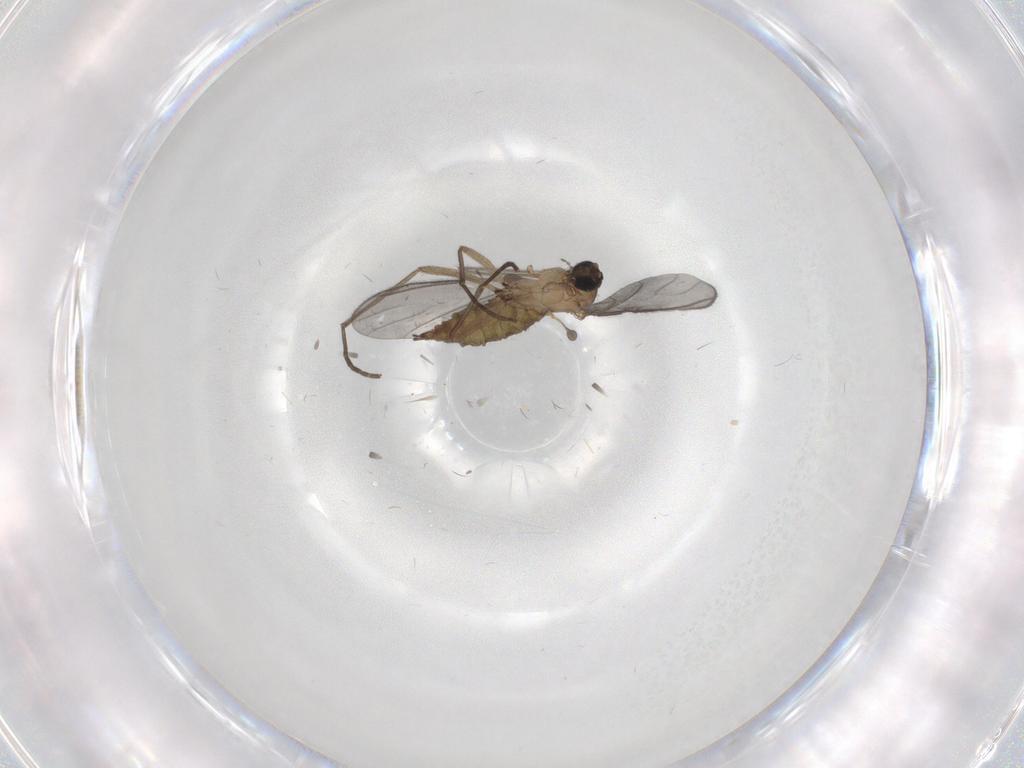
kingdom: Animalia
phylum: Arthropoda
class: Insecta
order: Diptera
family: Sciaridae
